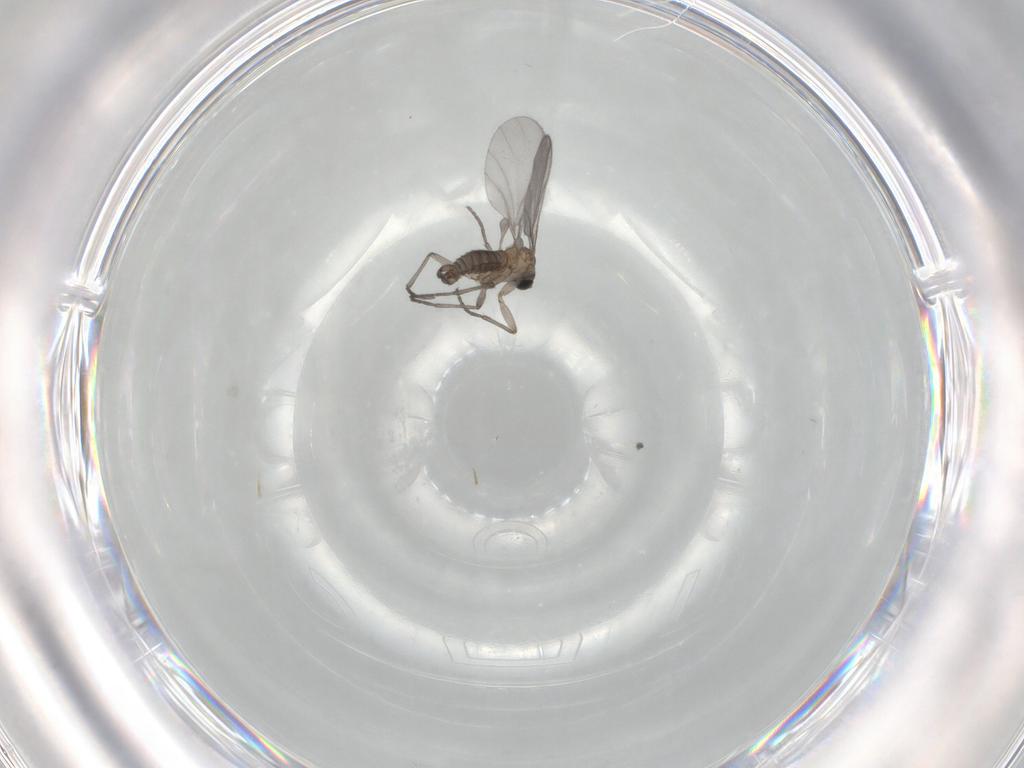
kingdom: Animalia
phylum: Arthropoda
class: Insecta
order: Diptera
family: Sciaridae
